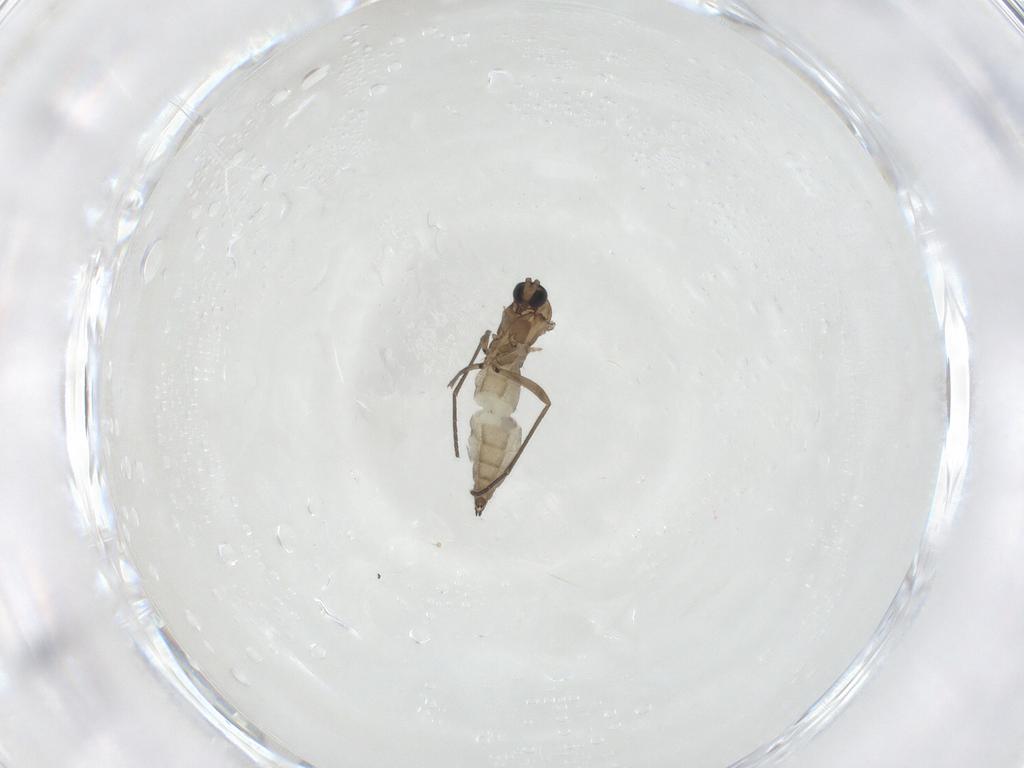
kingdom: Animalia
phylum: Arthropoda
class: Insecta
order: Diptera
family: Sciaridae
